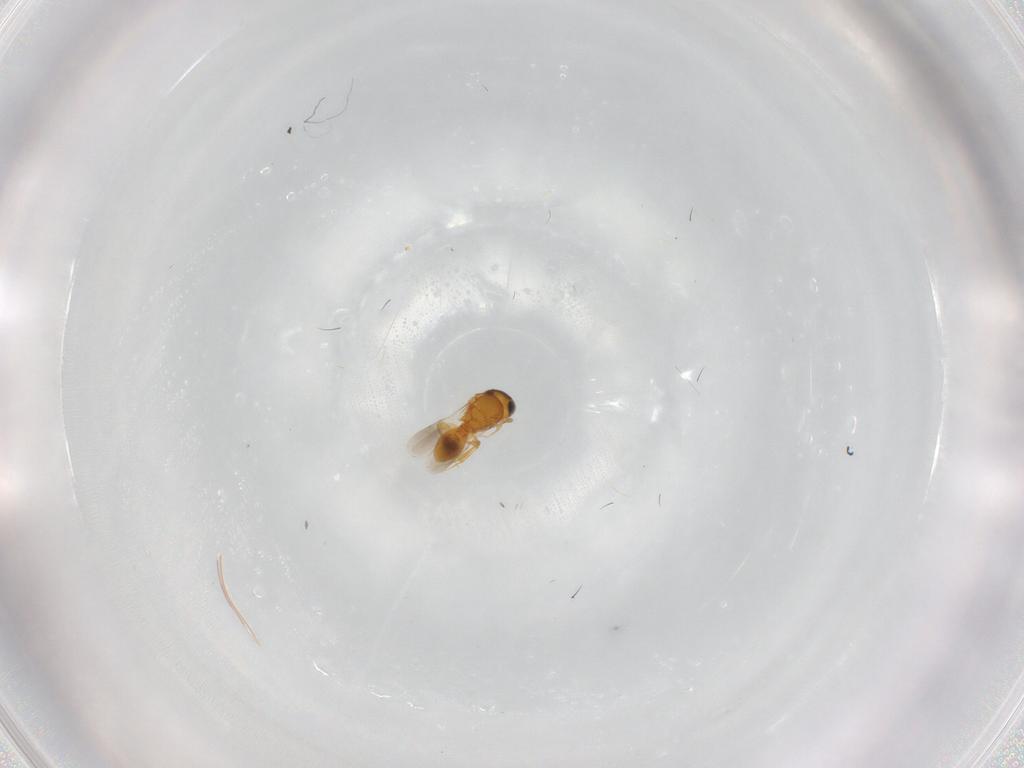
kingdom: Animalia
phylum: Arthropoda
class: Insecta
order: Hymenoptera
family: Platygastridae
